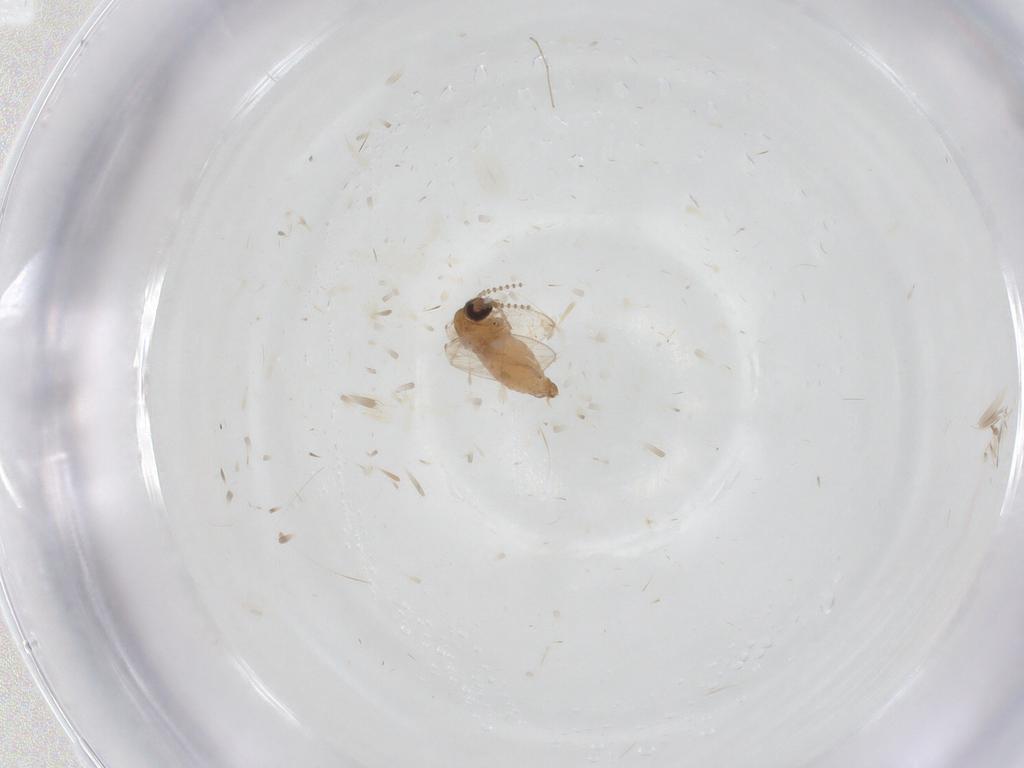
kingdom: Animalia
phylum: Arthropoda
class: Insecta
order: Diptera
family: Psychodidae
